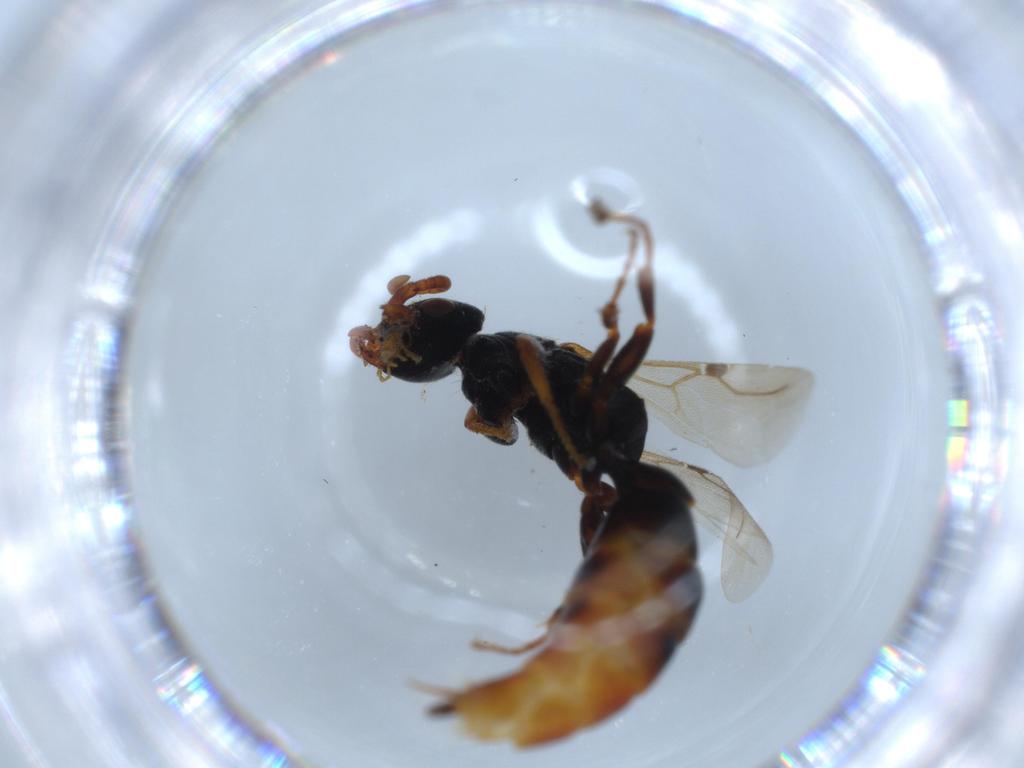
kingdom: Animalia
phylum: Arthropoda
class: Insecta
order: Hymenoptera
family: Bethylidae
